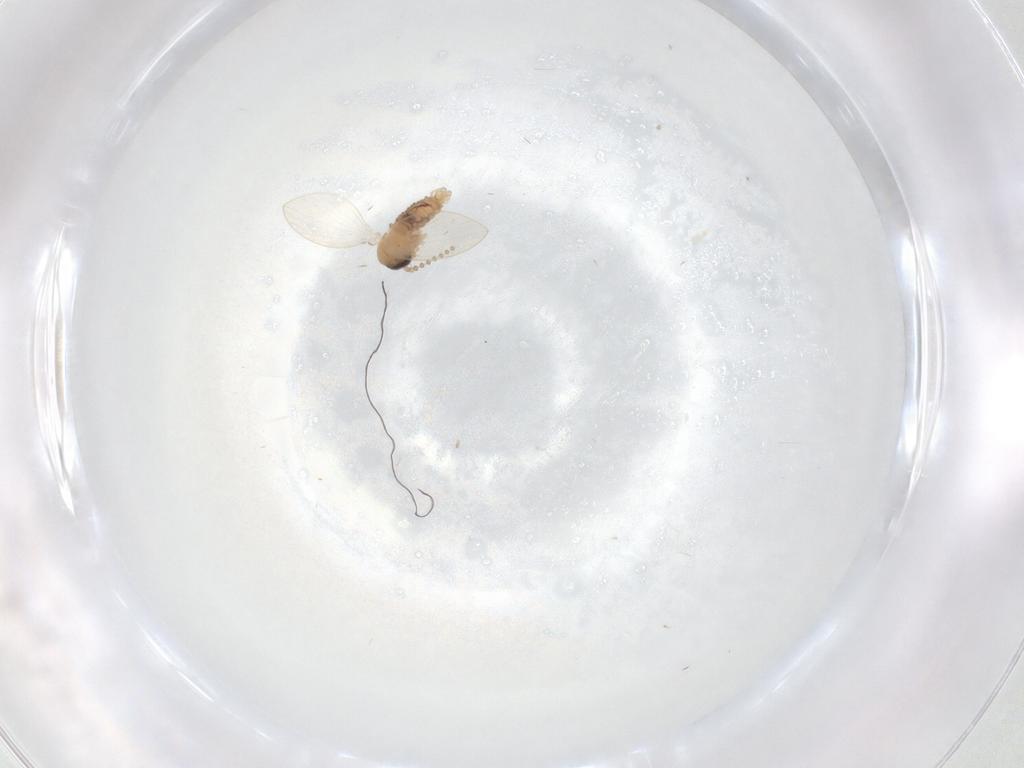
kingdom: Animalia
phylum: Arthropoda
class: Insecta
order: Diptera
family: Psychodidae
